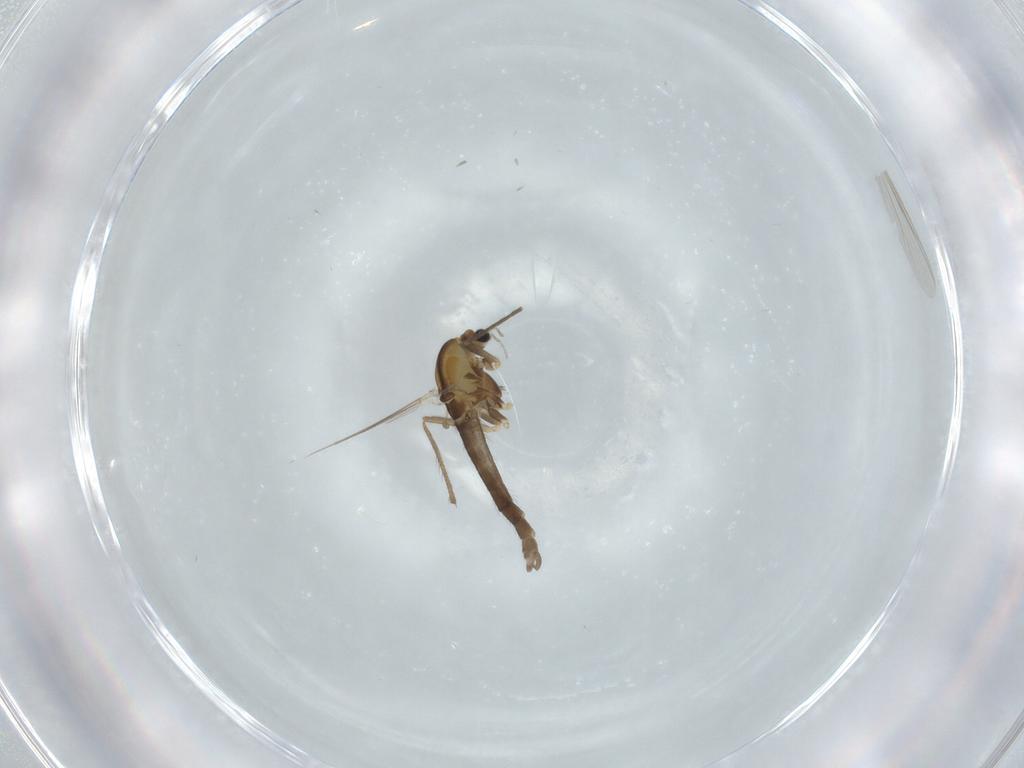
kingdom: Animalia
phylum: Arthropoda
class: Insecta
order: Diptera
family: Chironomidae
